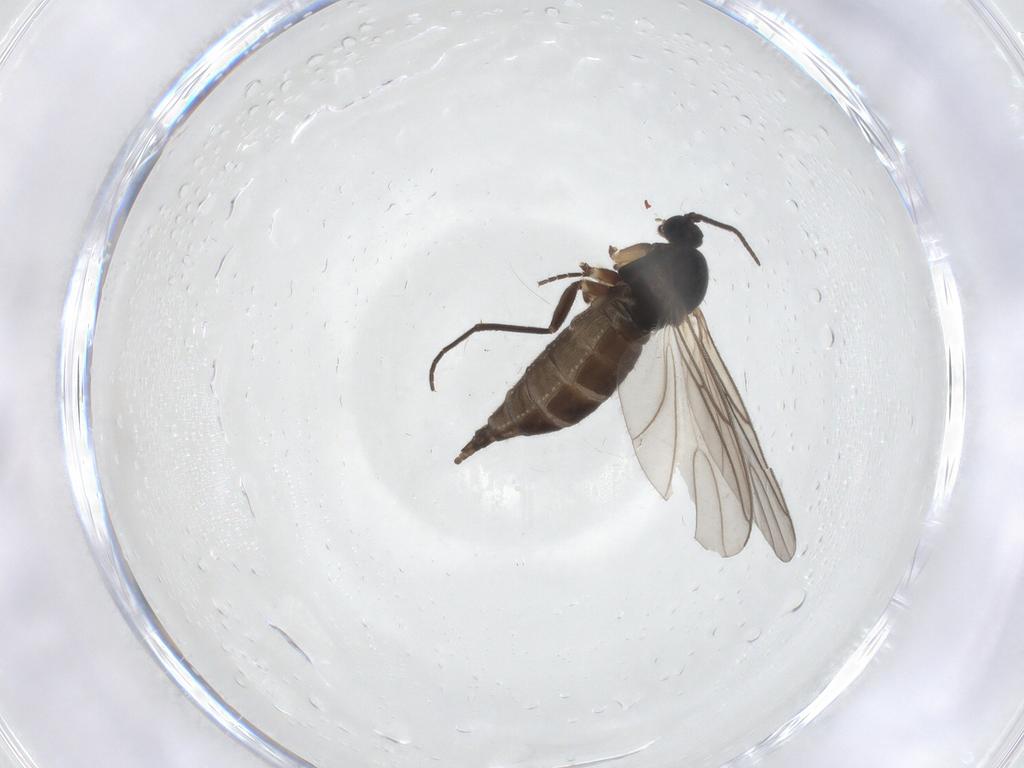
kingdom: Animalia
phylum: Arthropoda
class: Insecta
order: Diptera
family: Sciaridae
